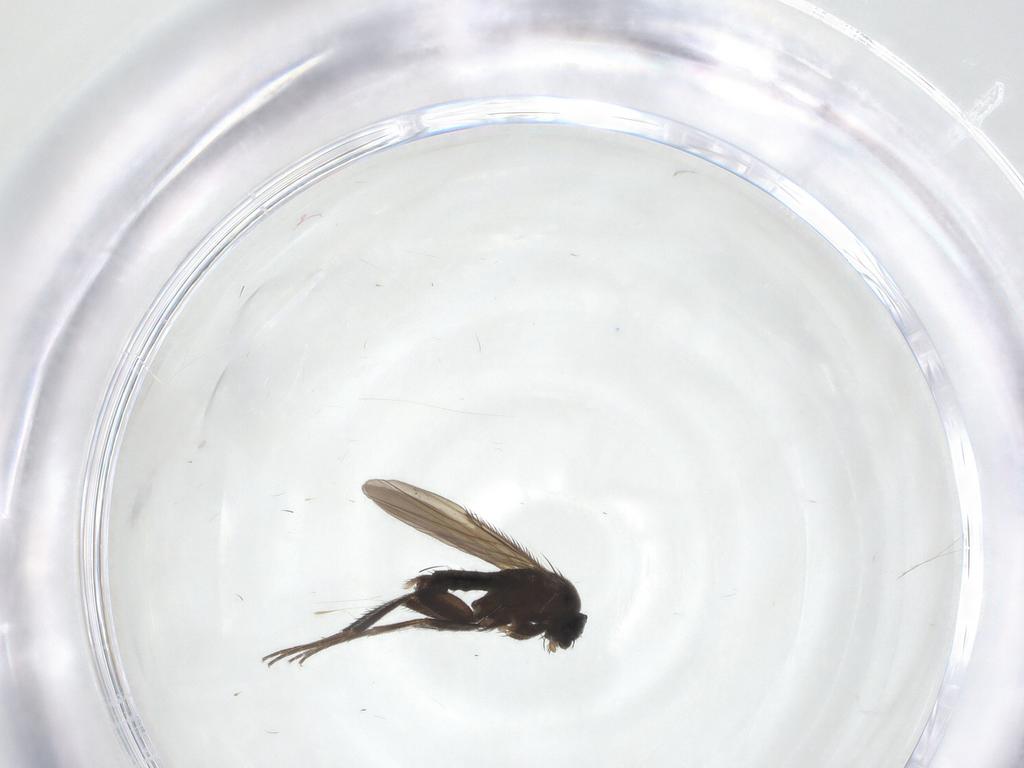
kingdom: Animalia
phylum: Arthropoda
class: Insecta
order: Diptera
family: Phoridae
